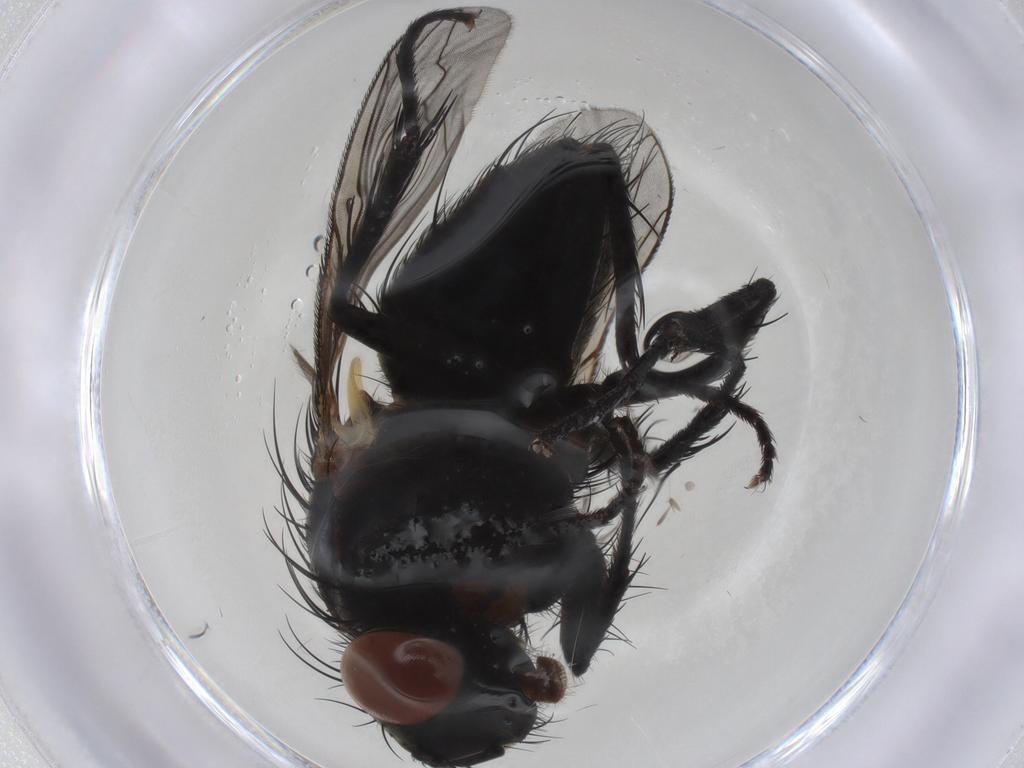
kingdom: Animalia
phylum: Arthropoda
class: Insecta
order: Diptera
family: Sarcophagidae
